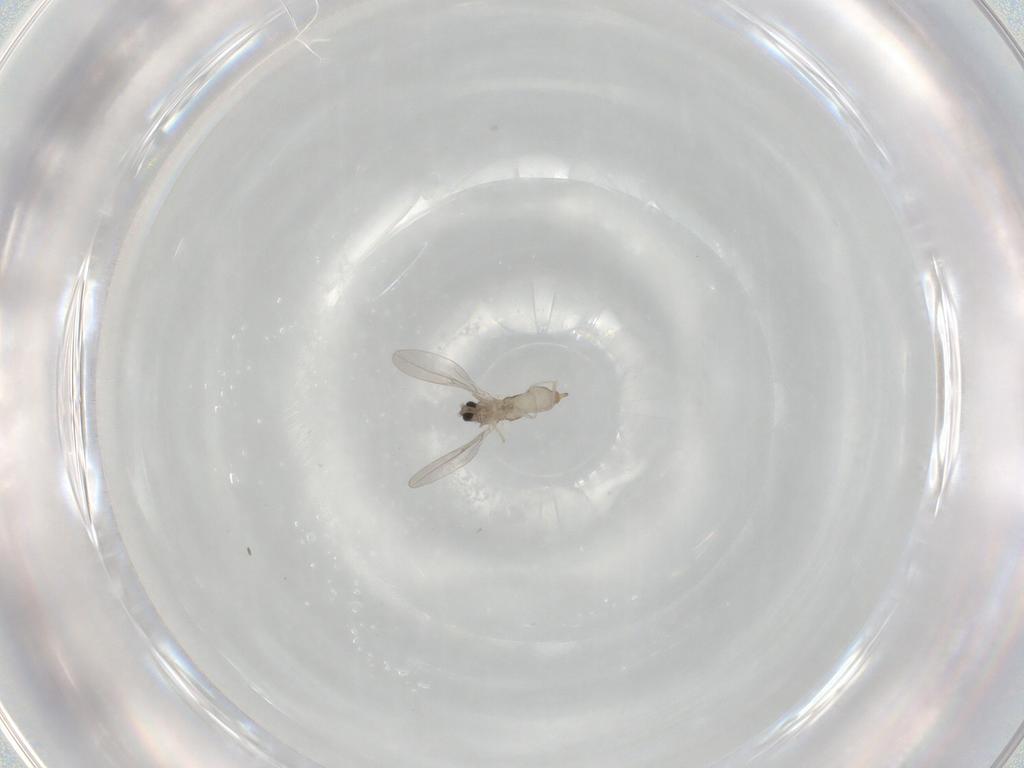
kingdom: Animalia
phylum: Arthropoda
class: Insecta
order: Diptera
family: Cecidomyiidae
